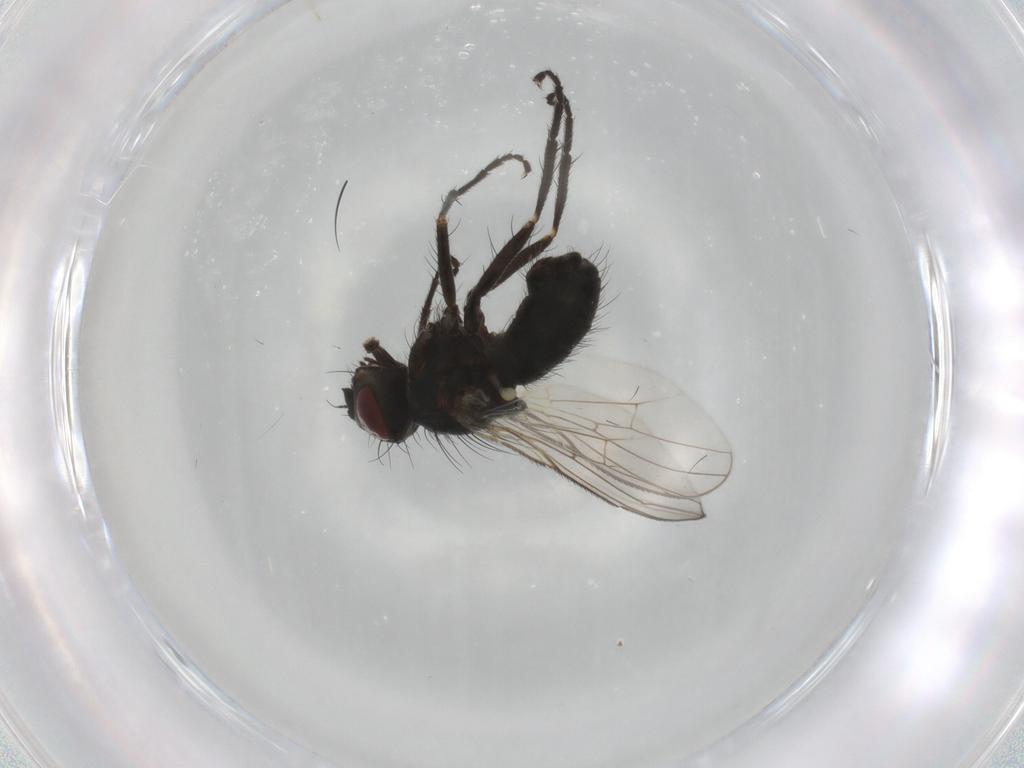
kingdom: Animalia
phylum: Arthropoda
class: Insecta
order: Diptera
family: Muscidae
